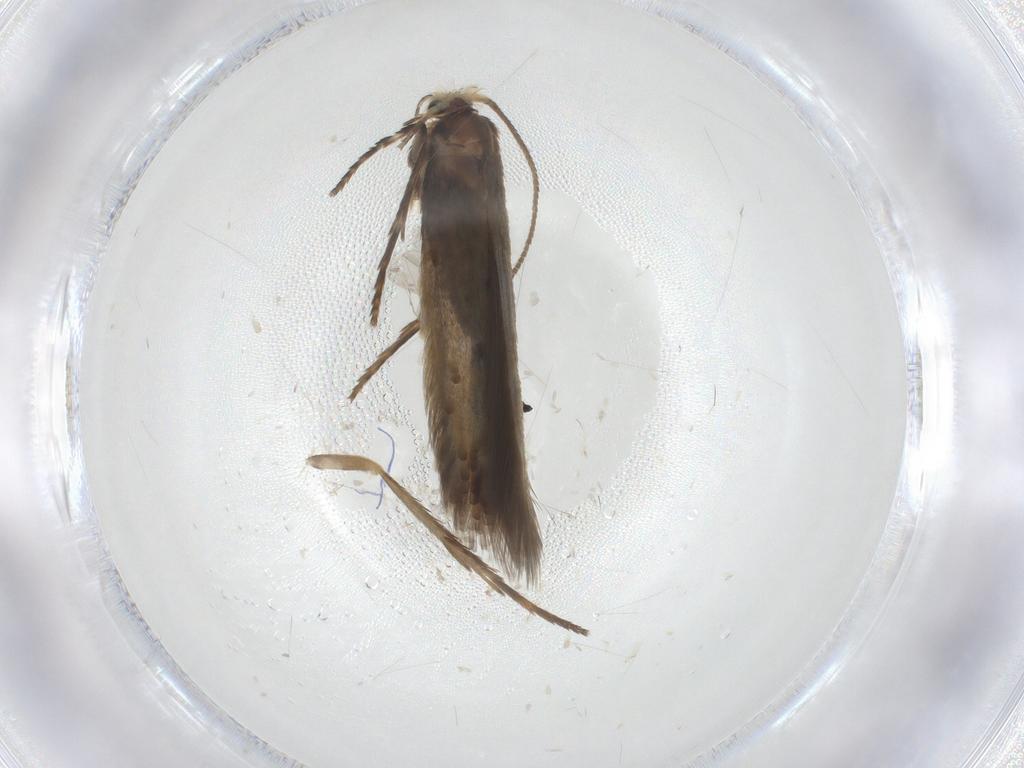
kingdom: Animalia
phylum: Arthropoda
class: Insecta
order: Lepidoptera
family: Nepticulidae
